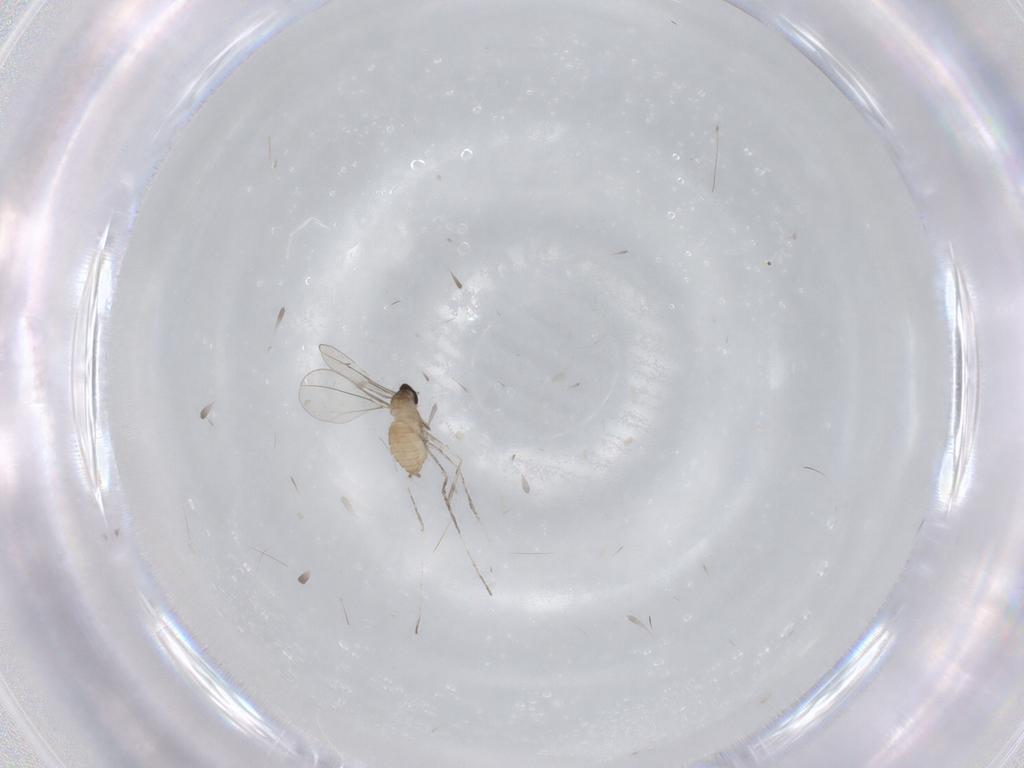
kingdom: Animalia
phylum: Arthropoda
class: Insecta
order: Diptera
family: Cecidomyiidae
